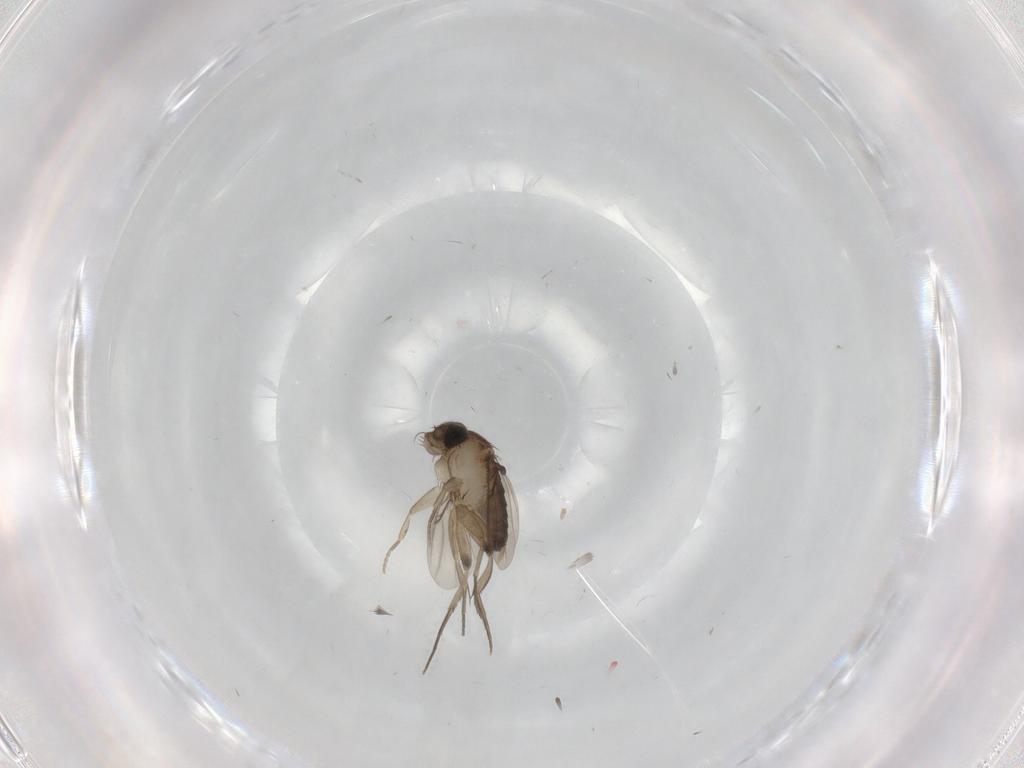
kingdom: Animalia
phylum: Arthropoda
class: Insecta
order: Diptera
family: Phoridae
